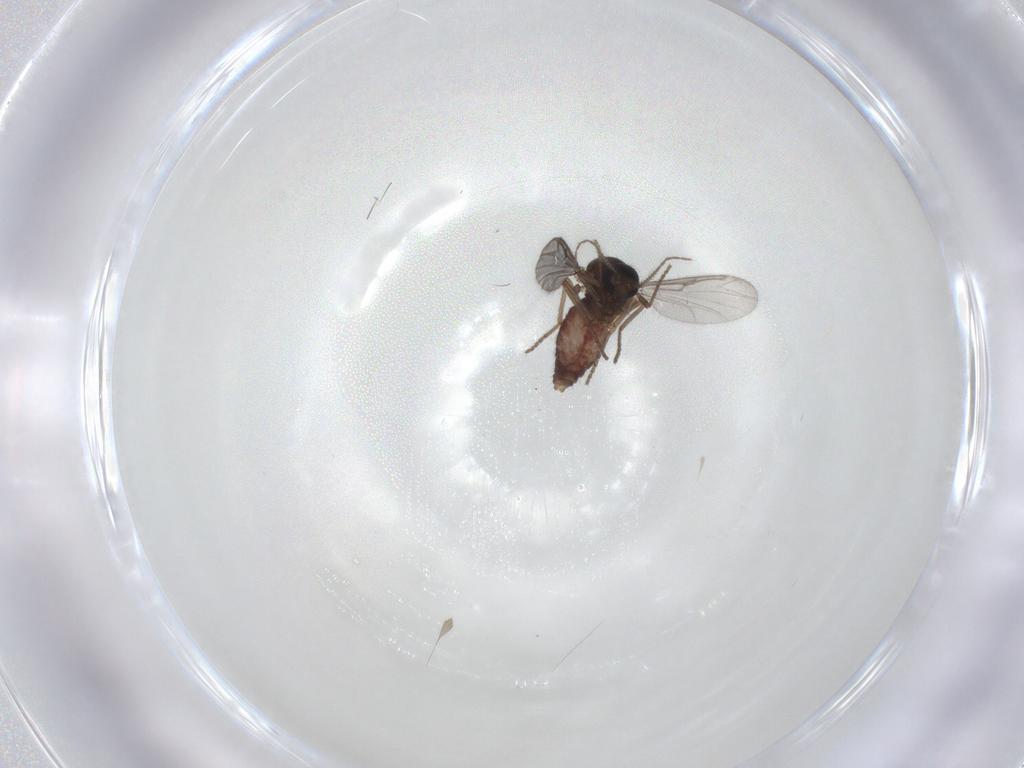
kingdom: Animalia
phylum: Arthropoda
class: Insecta
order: Diptera
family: Ceratopogonidae
